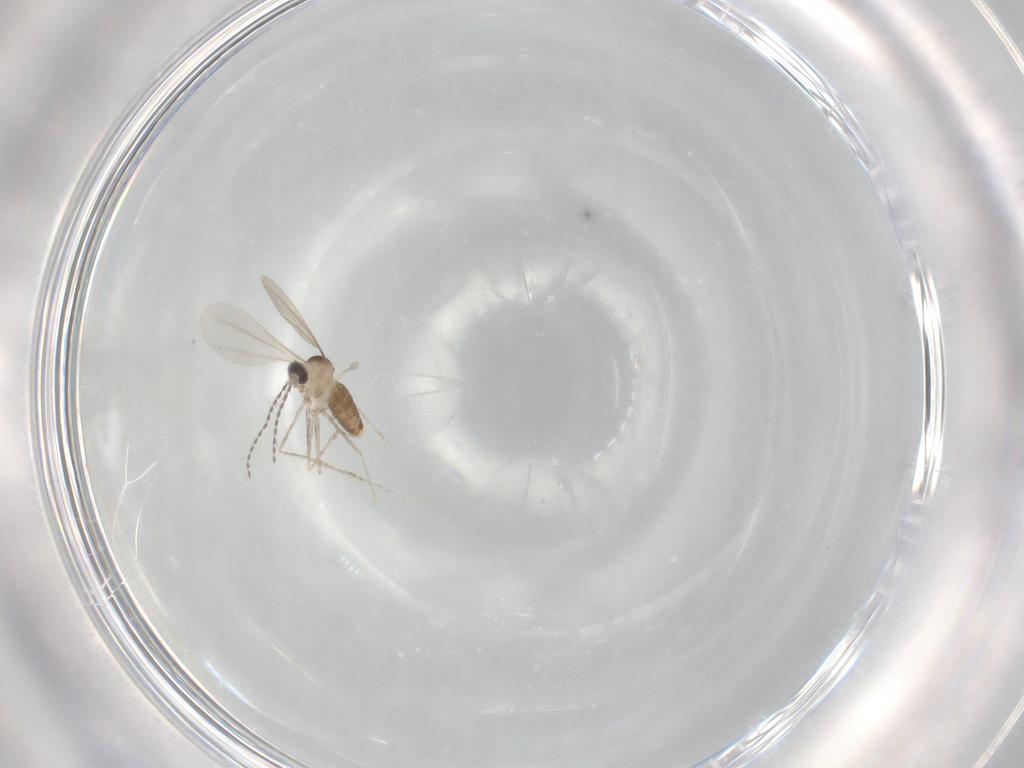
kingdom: Animalia
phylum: Arthropoda
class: Insecta
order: Diptera
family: Cecidomyiidae
